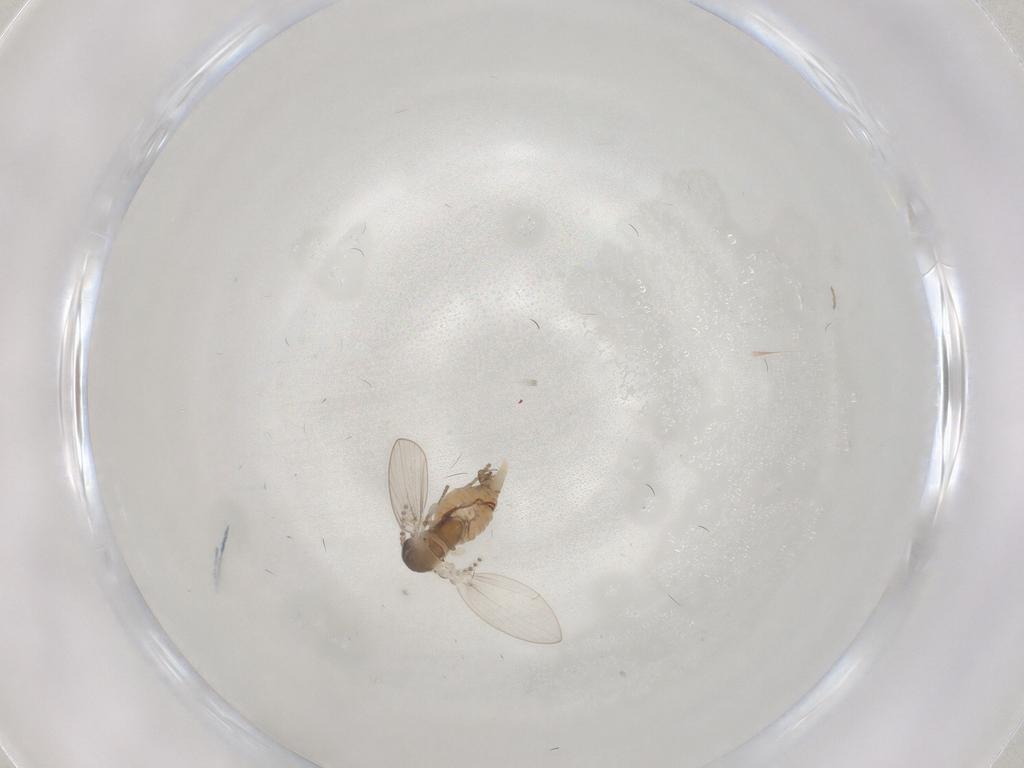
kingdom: Animalia
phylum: Arthropoda
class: Insecta
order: Diptera
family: Psychodidae
